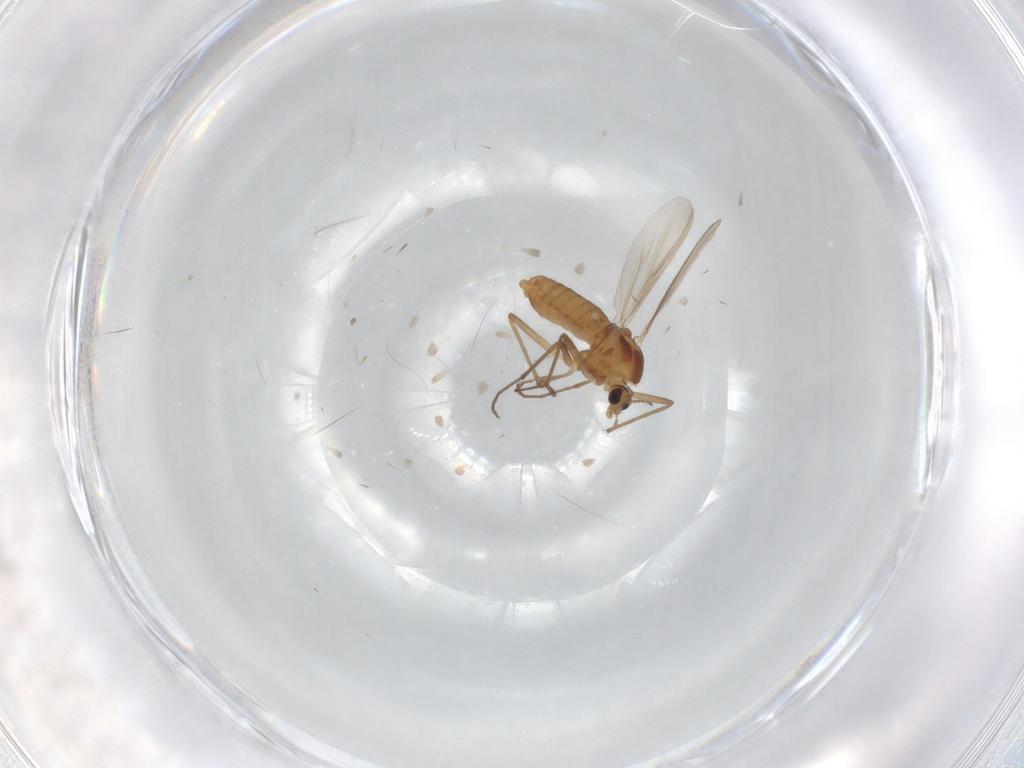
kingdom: Animalia
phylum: Arthropoda
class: Insecta
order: Diptera
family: Chironomidae
